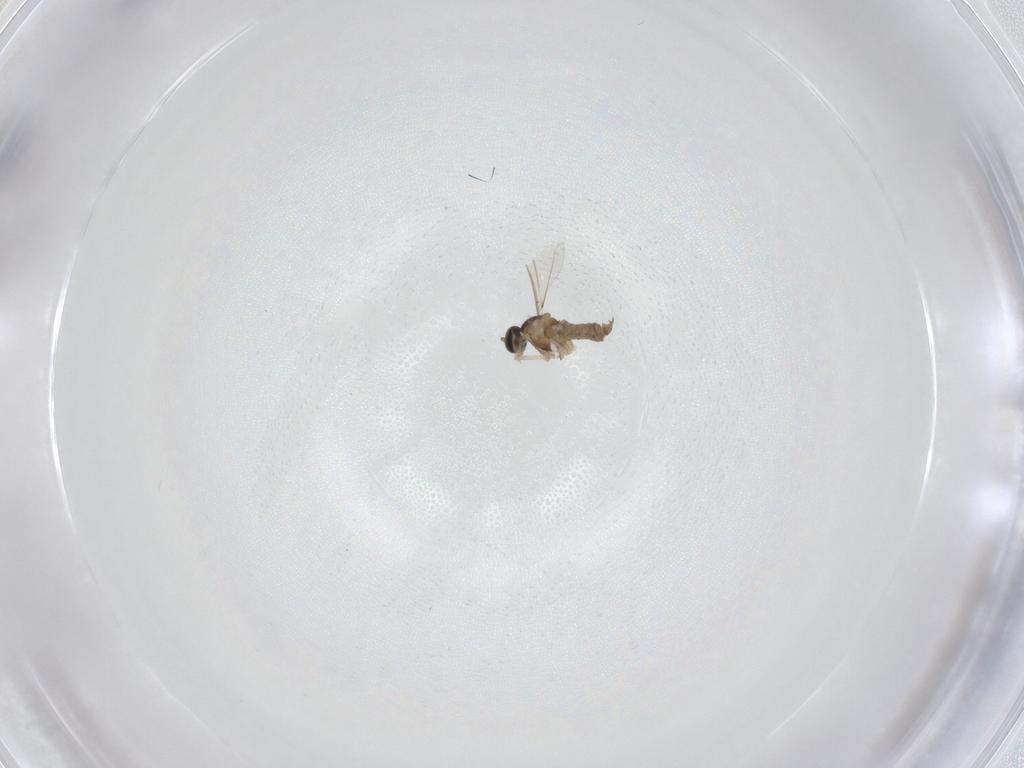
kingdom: Animalia
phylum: Arthropoda
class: Insecta
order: Diptera
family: Cecidomyiidae
